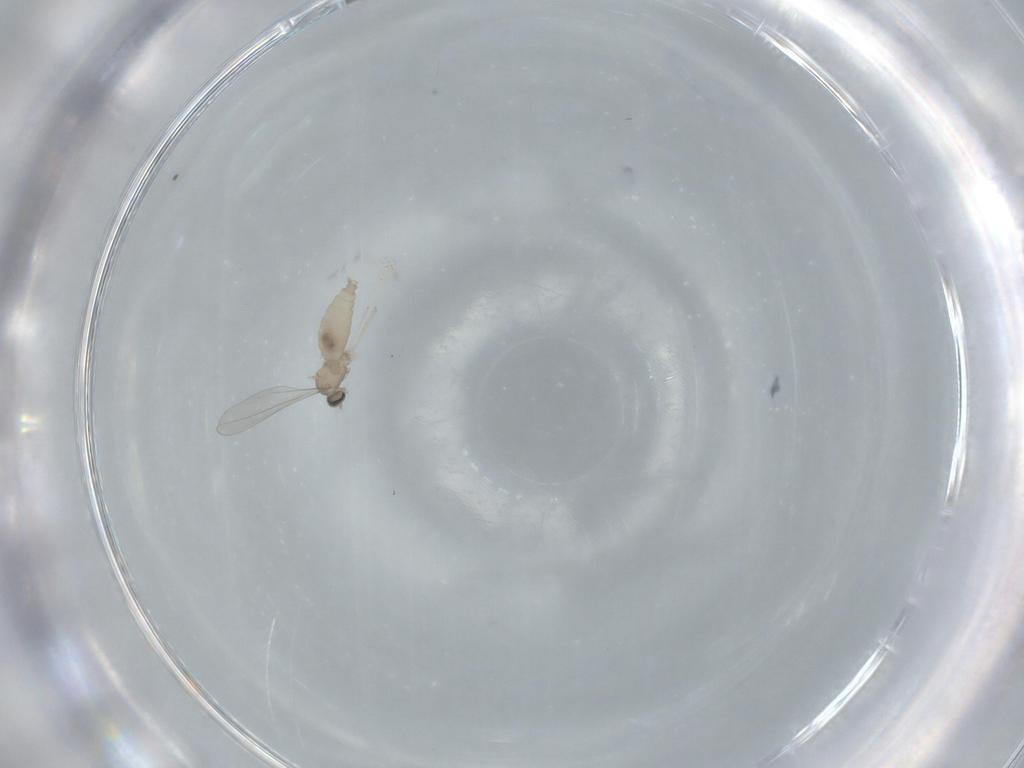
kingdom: Animalia
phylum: Arthropoda
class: Insecta
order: Diptera
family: Cecidomyiidae
